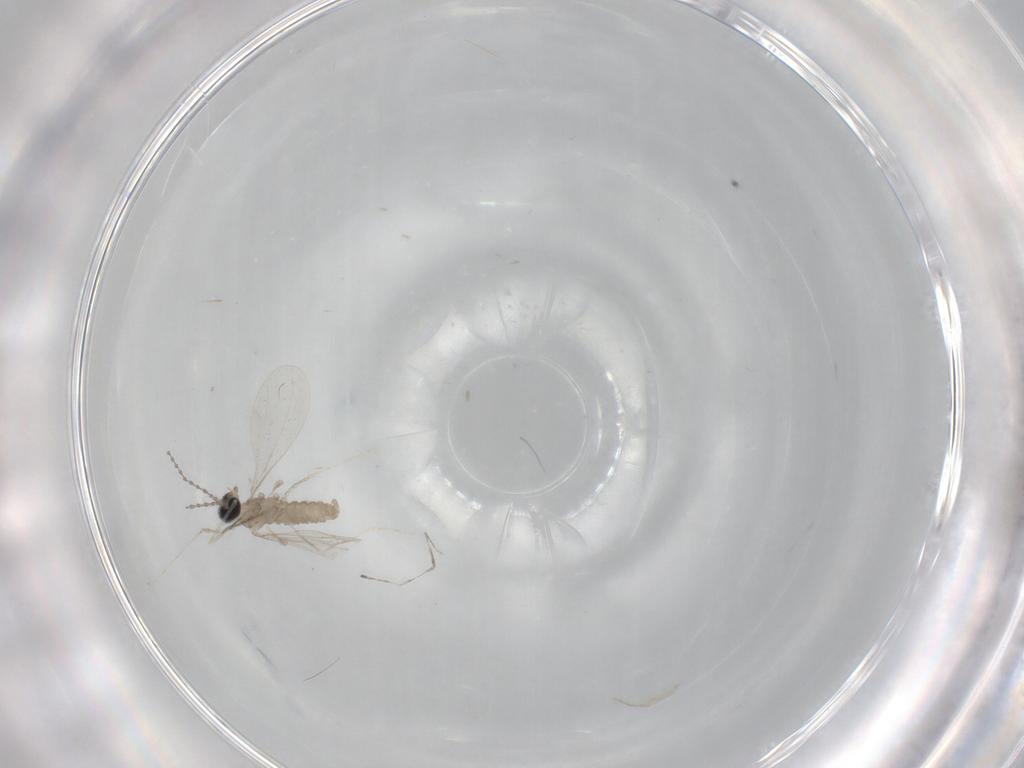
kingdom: Animalia
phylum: Arthropoda
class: Insecta
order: Diptera
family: Cecidomyiidae
